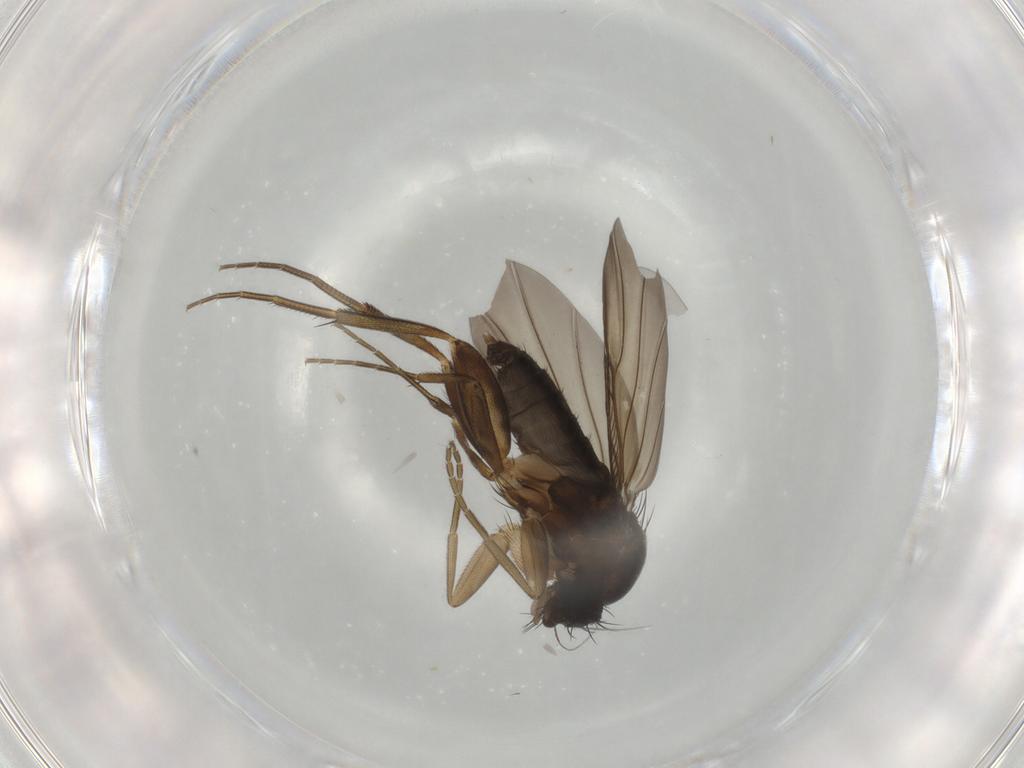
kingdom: Animalia
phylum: Arthropoda
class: Insecta
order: Diptera
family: Phoridae
